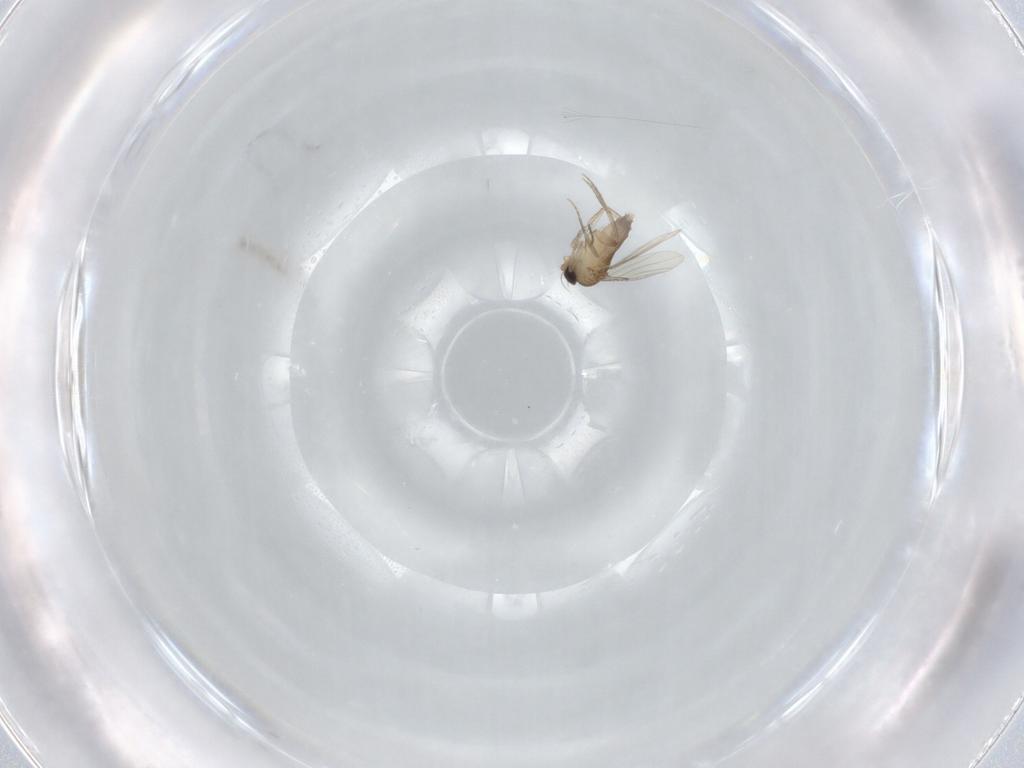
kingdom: Animalia
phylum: Arthropoda
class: Insecta
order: Diptera
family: Phoridae
